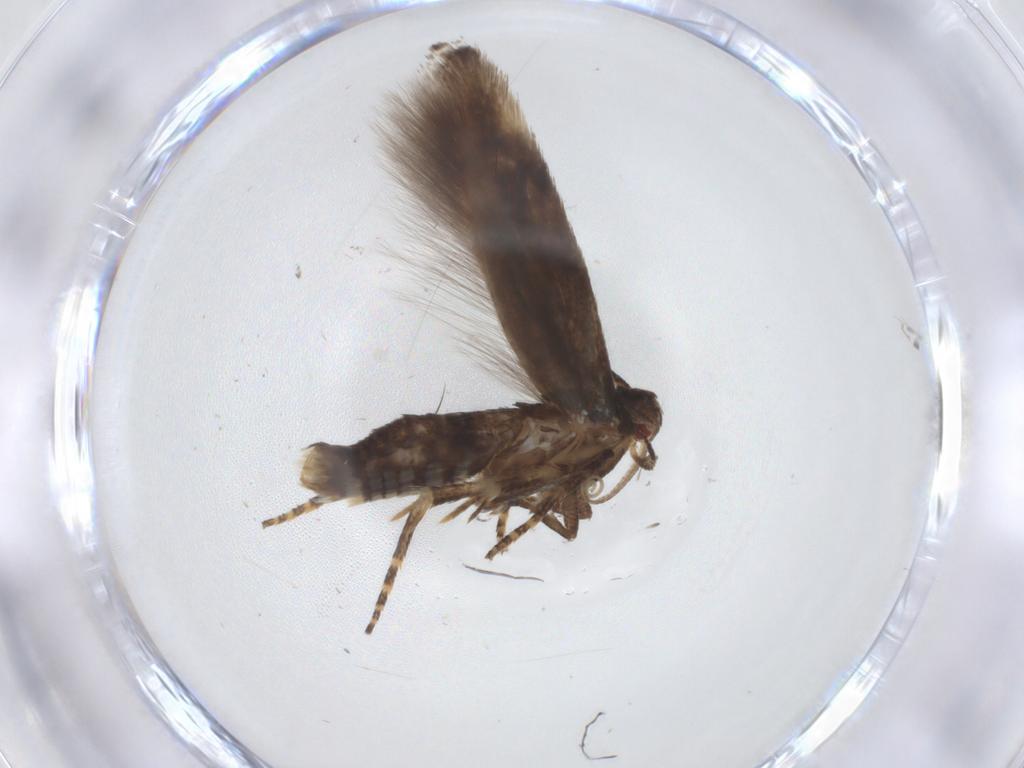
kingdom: Animalia
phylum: Arthropoda
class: Insecta
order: Lepidoptera
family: Momphidae
